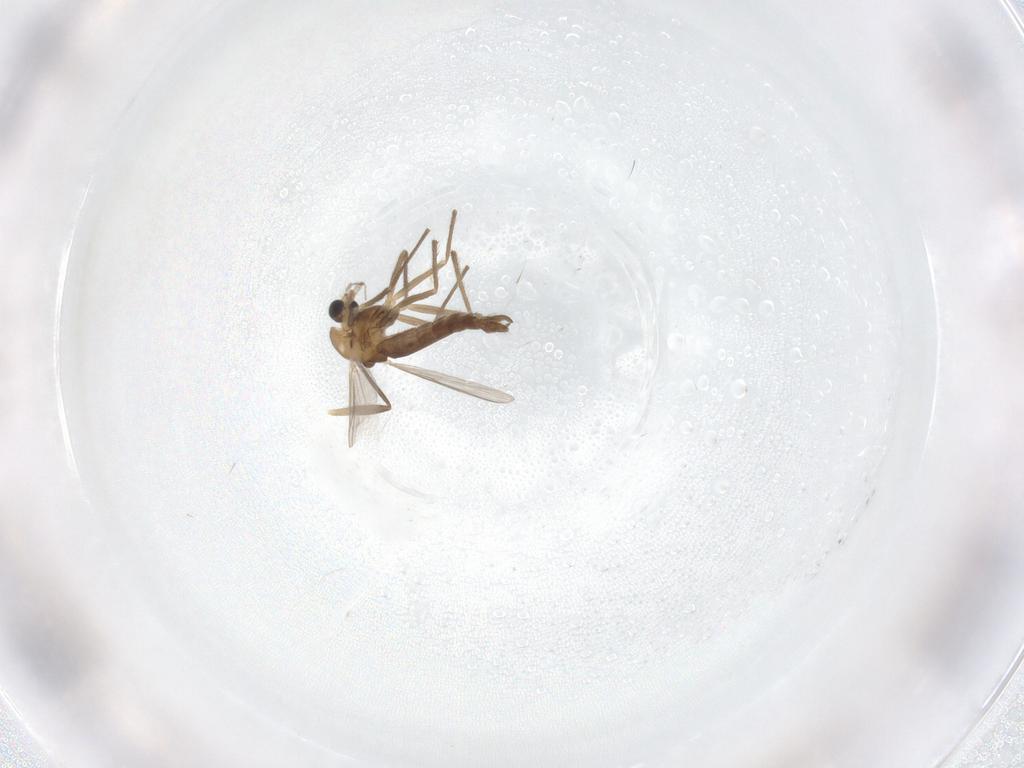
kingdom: Animalia
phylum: Arthropoda
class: Insecta
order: Diptera
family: Chironomidae
